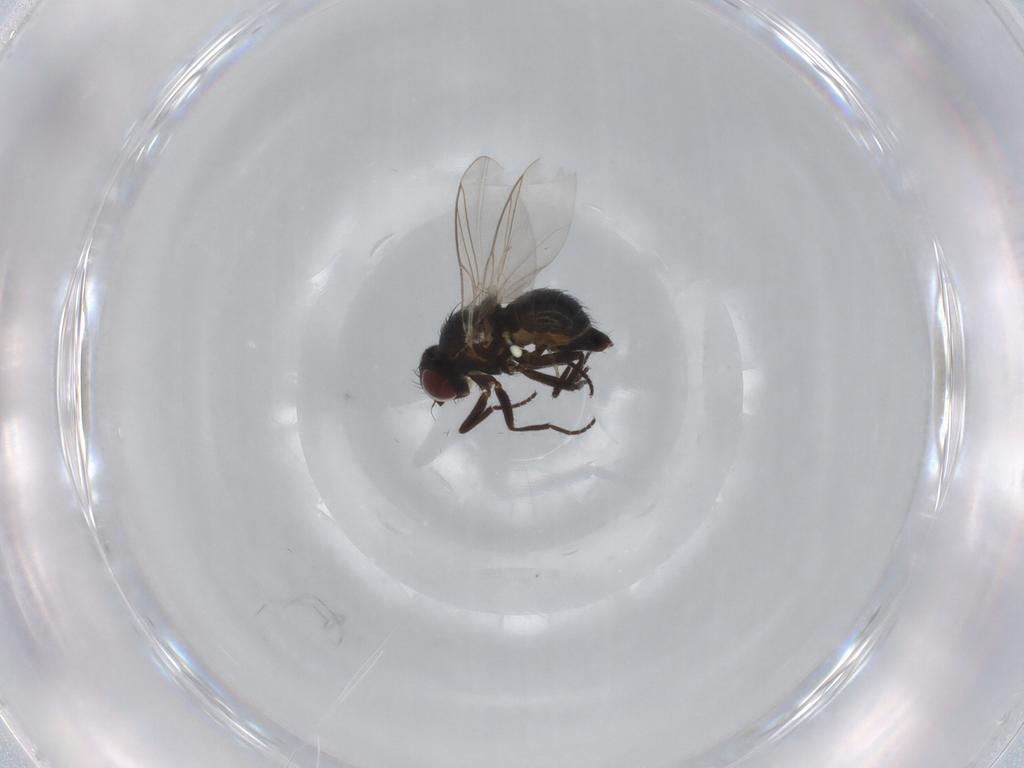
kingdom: Animalia
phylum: Arthropoda
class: Insecta
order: Diptera
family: Cecidomyiidae
